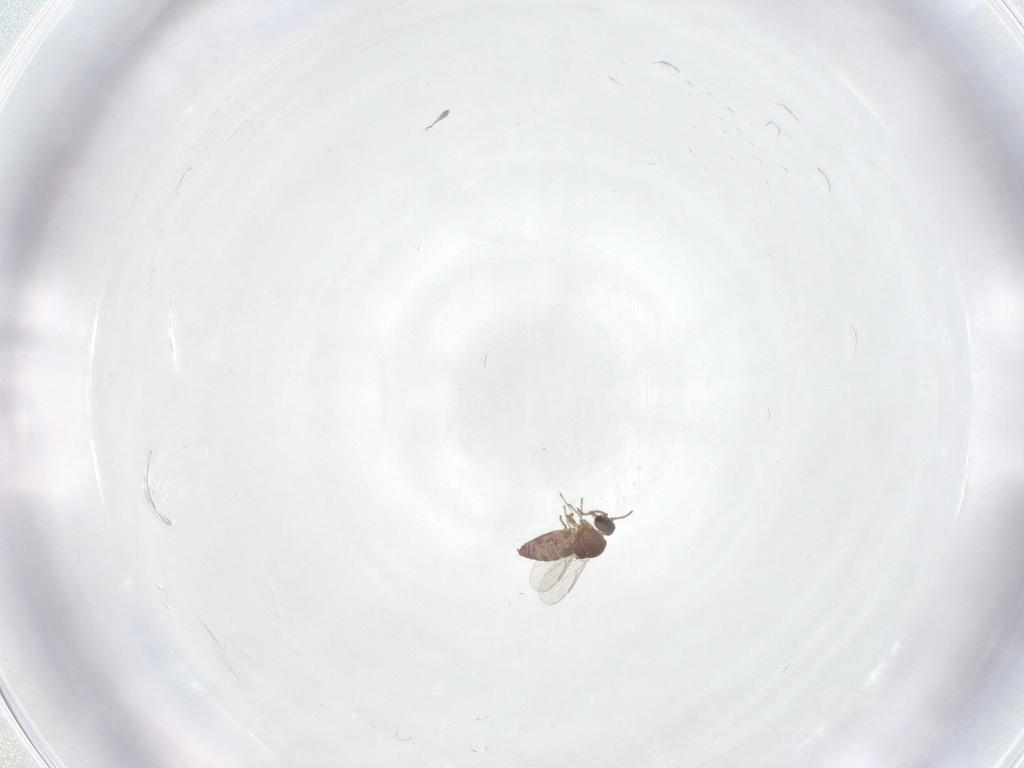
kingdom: Animalia
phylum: Arthropoda
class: Insecta
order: Diptera
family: Ceratopogonidae
